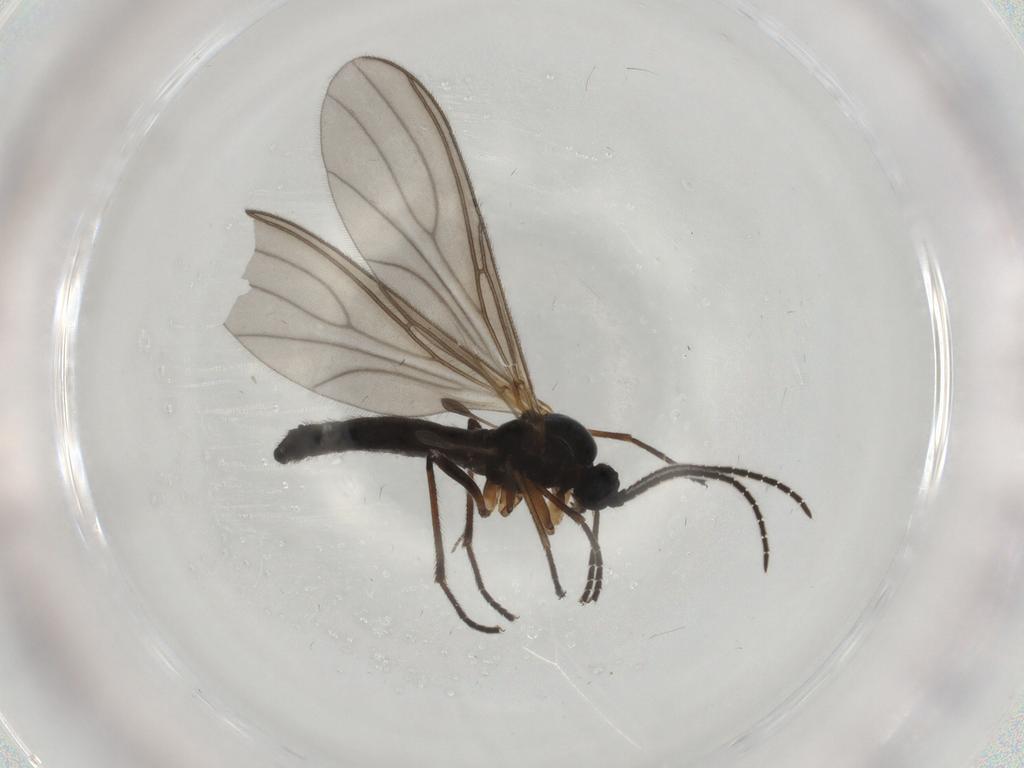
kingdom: Animalia
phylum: Arthropoda
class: Insecta
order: Diptera
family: Sciaridae
